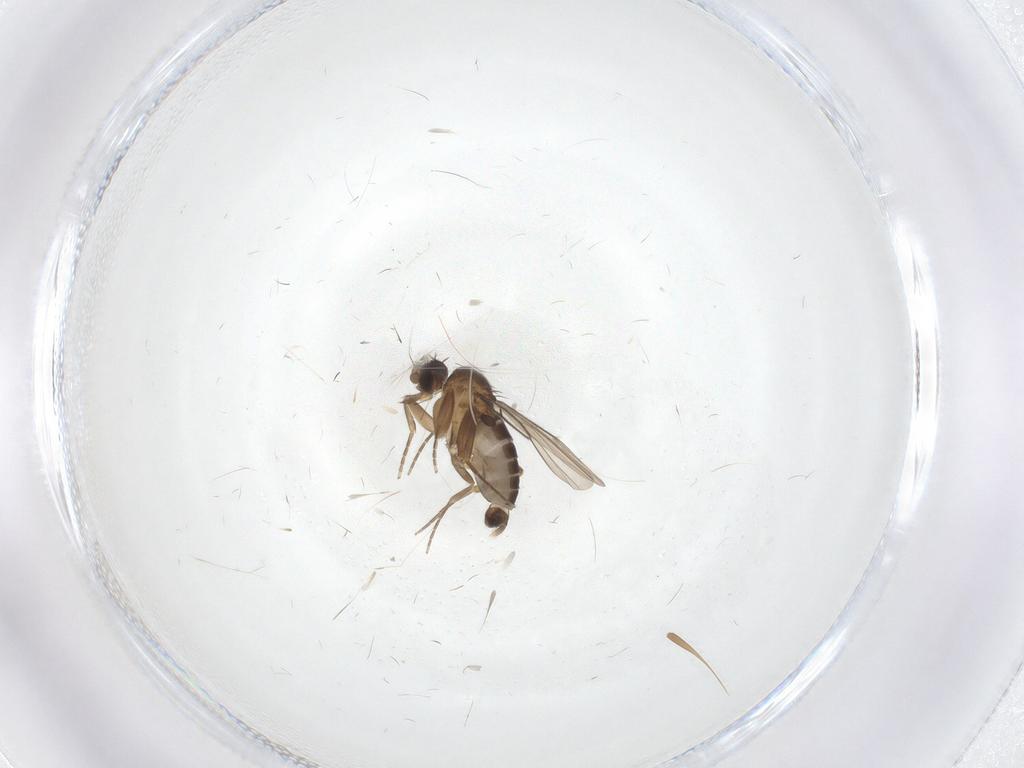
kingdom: Animalia
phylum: Arthropoda
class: Insecta
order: Diptera
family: Phoridae
